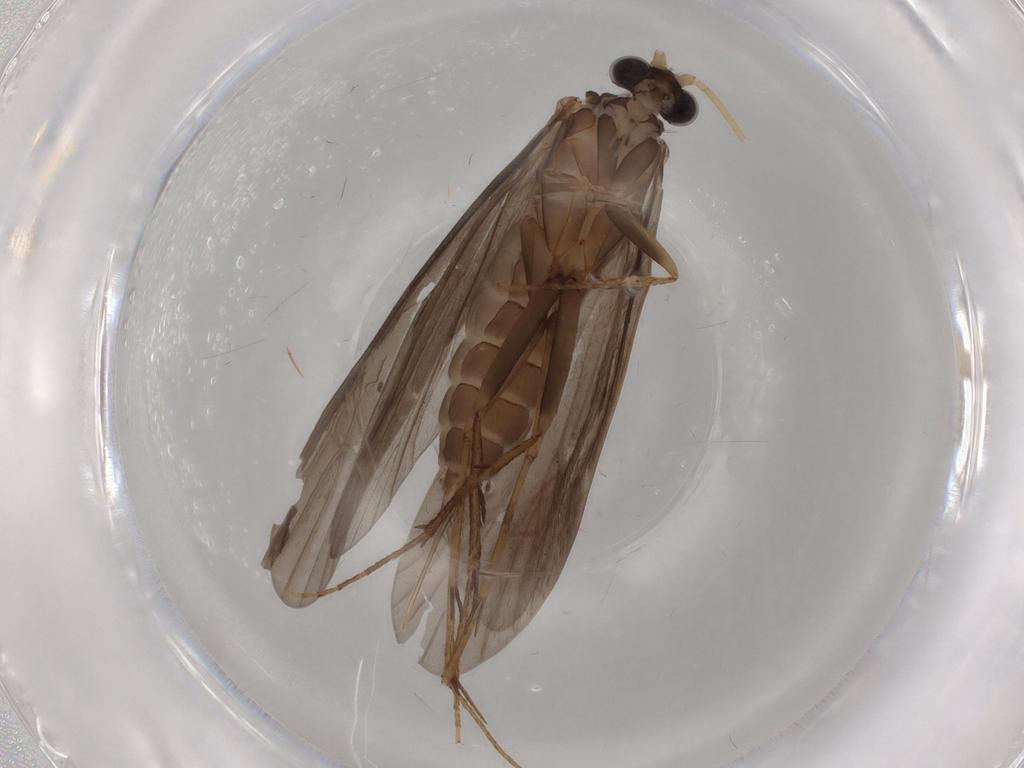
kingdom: Animalia
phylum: Arthropoda
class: Insecta
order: Trichoptera
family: Ecnomidae
